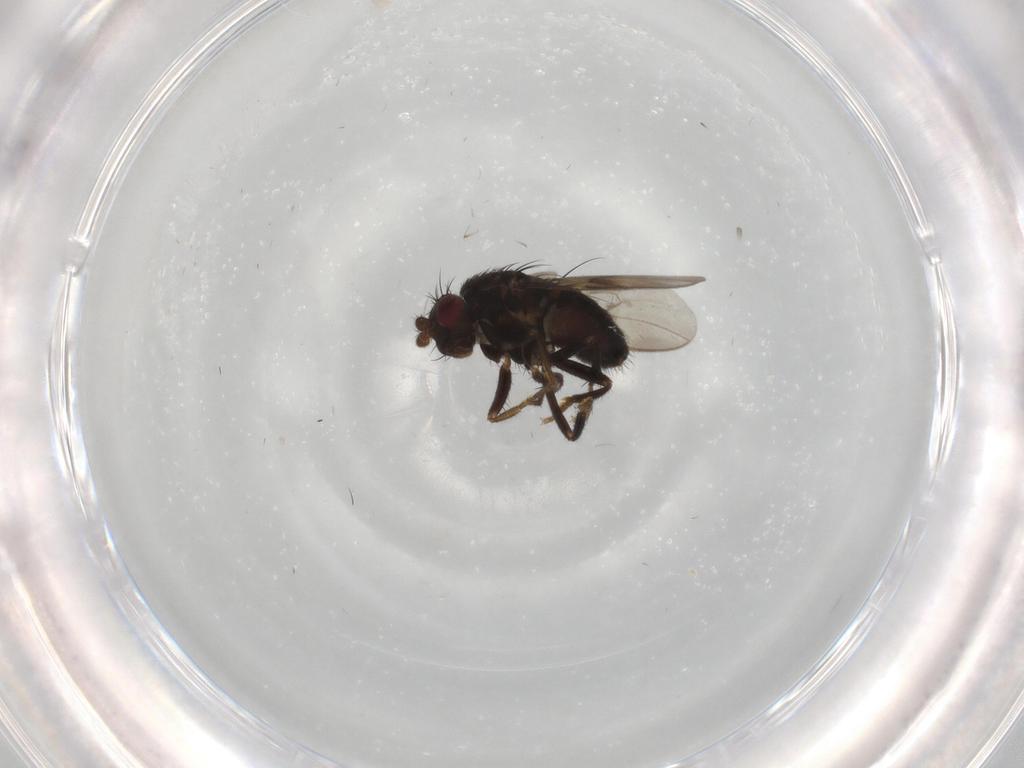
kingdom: Animalia
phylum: Arthropoda
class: Insecta
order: Diptera
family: Sphaeroceridae
